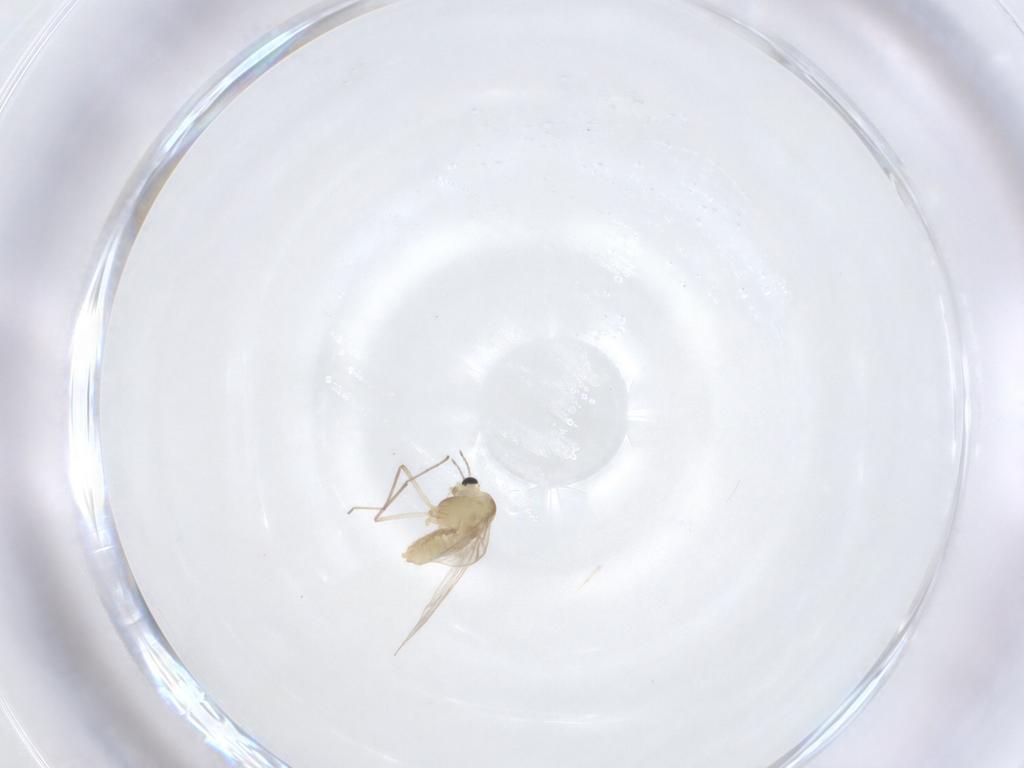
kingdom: Animalia
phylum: Arthropoda
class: Insecta
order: Diptera
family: Chironomidae
